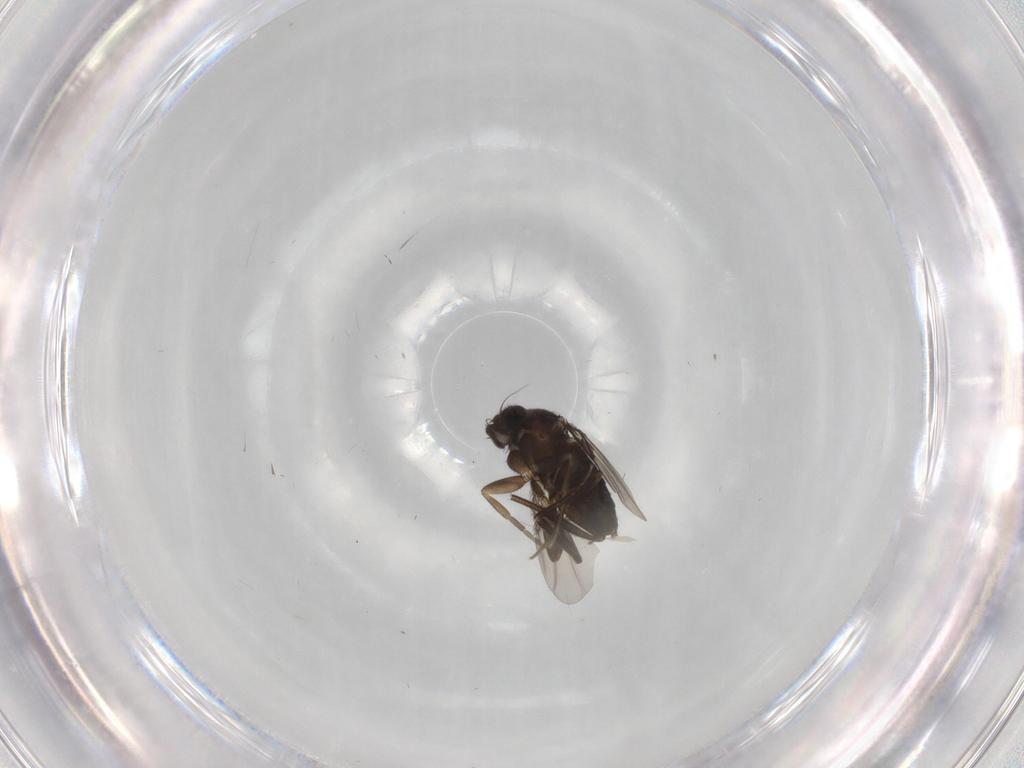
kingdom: Animalia
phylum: Arthropoda
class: Insecta
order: Diptera
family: Phoridae
